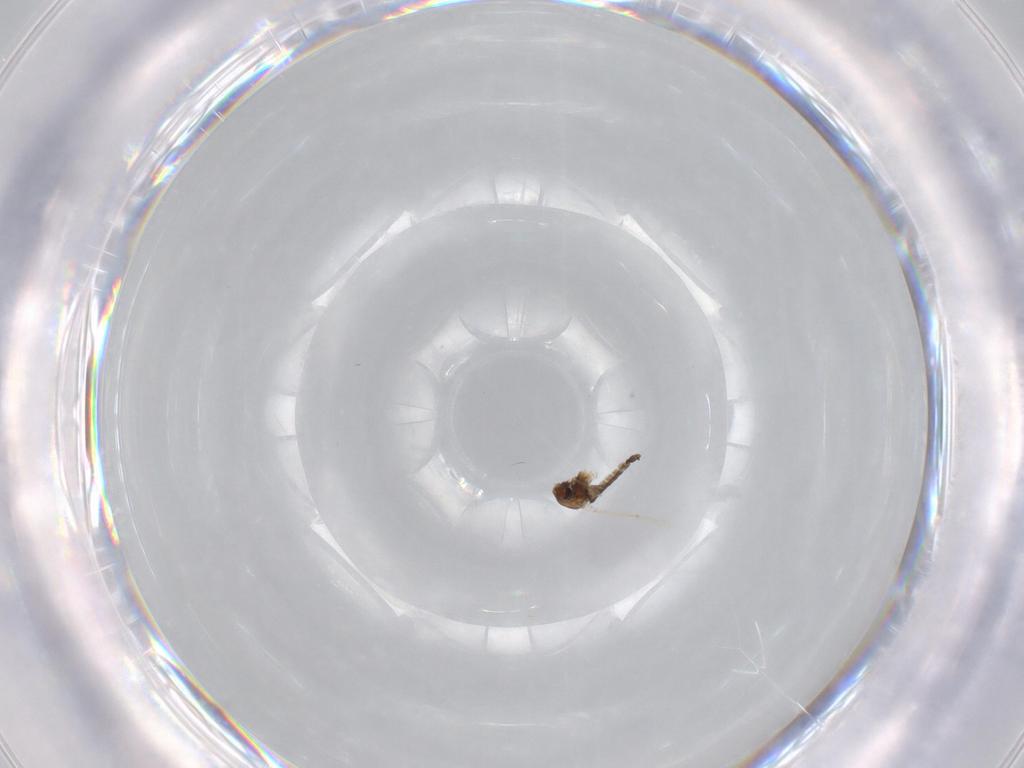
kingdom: Animalia
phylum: Arthropoda
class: Insecta
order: Diptera
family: Chironomidae
